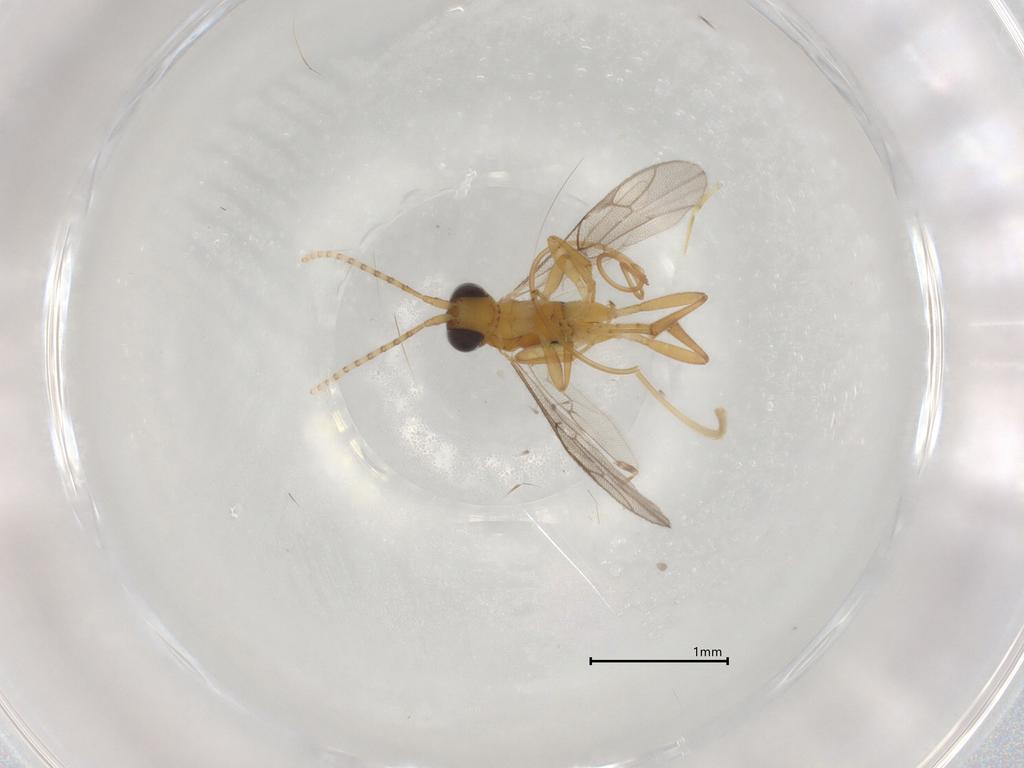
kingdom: Animalia
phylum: Arthropoda
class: Insecta
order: Hymenoptera
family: Ichneumonidae
